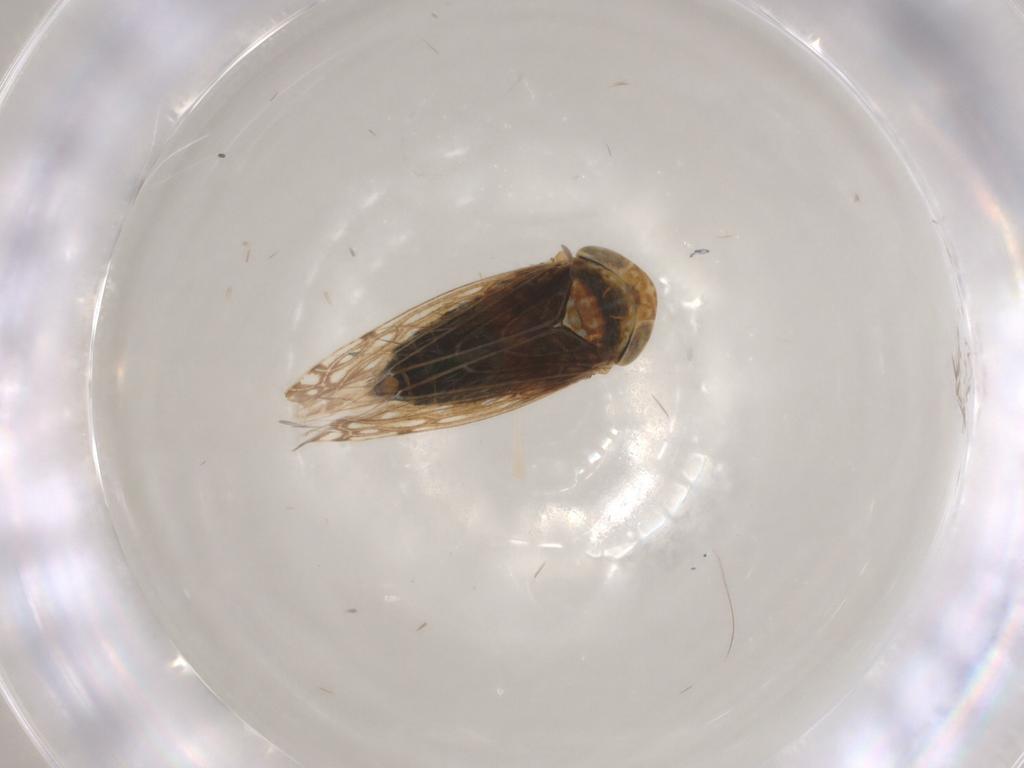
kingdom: Animalia
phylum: Arthropoda
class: Insecta
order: Hemiptera
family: Cicadellidae
